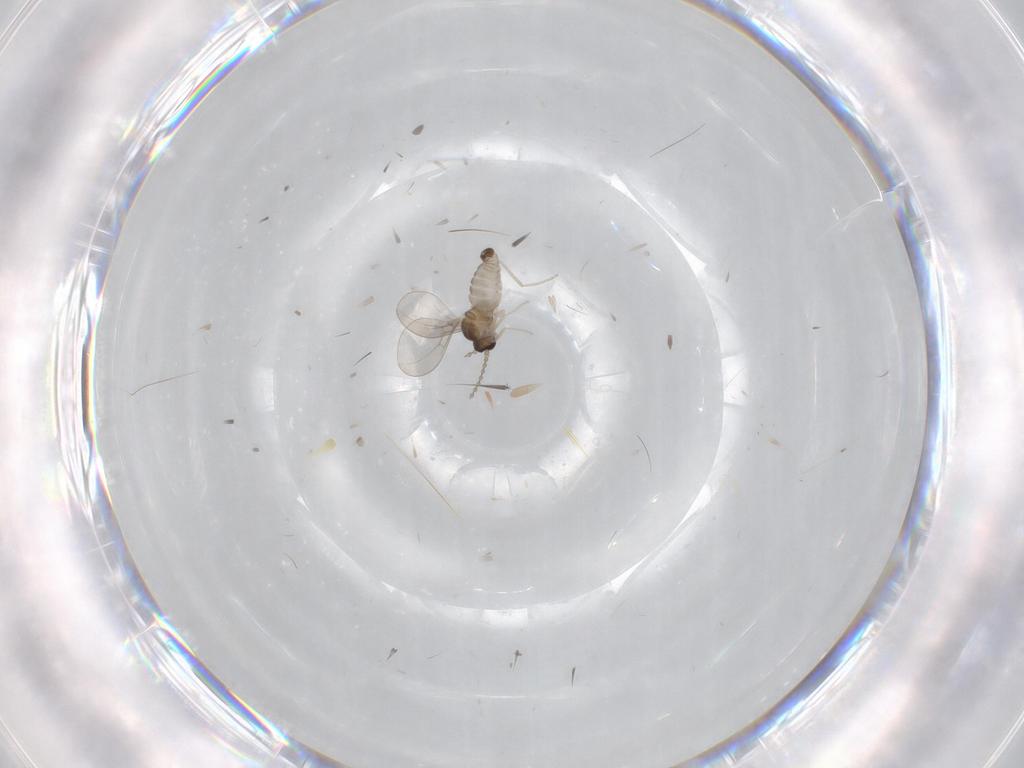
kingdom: Animalia
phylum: Arthropoda
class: Insecta
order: Diptera
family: Cecidomyiidae
